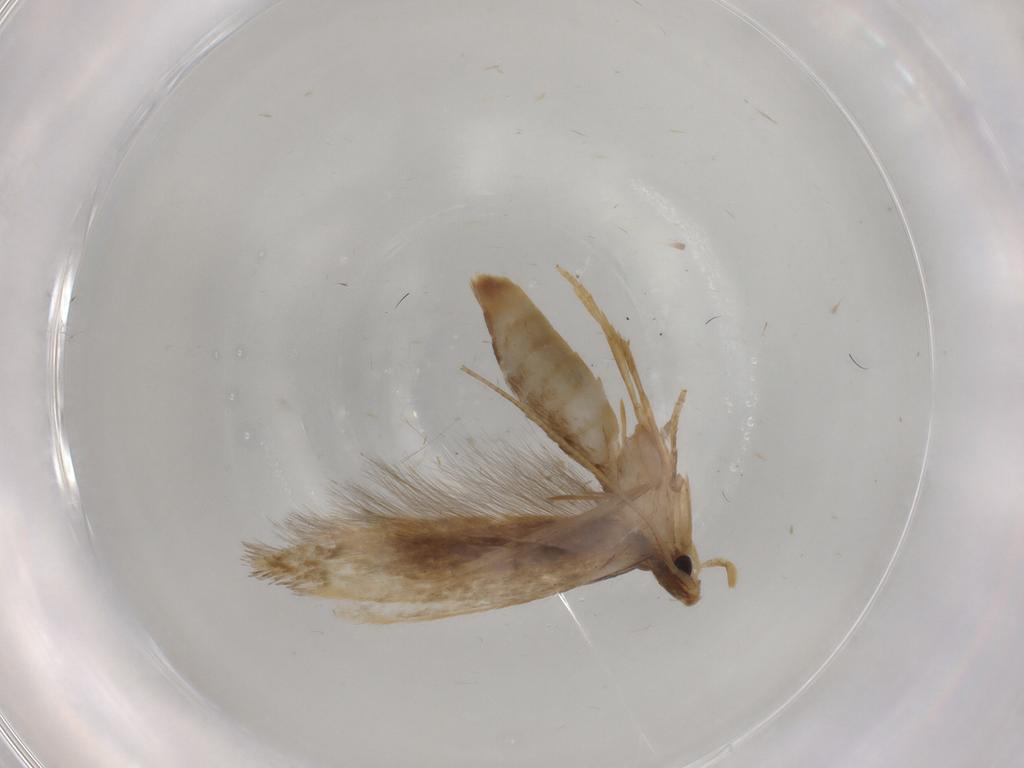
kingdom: Animalia
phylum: Arthropoda
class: Insecta
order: Lepidoptera
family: Tineidae
